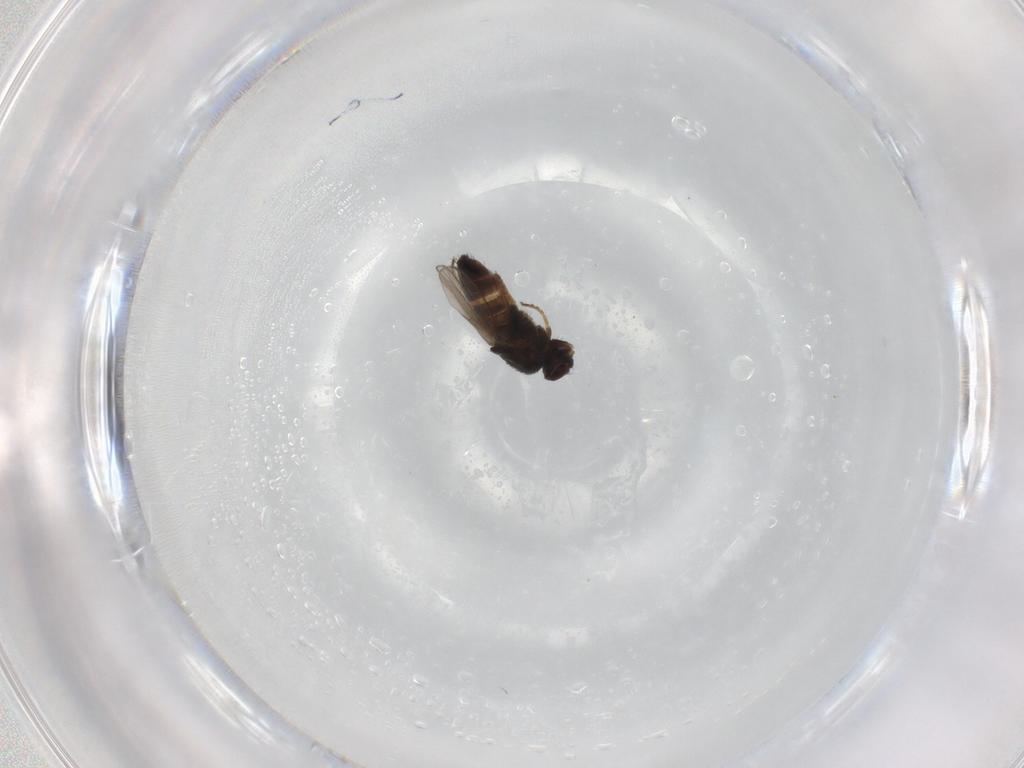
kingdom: Animalia
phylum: Arthropoda
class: Insecta
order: Diptera
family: Milichiidae
